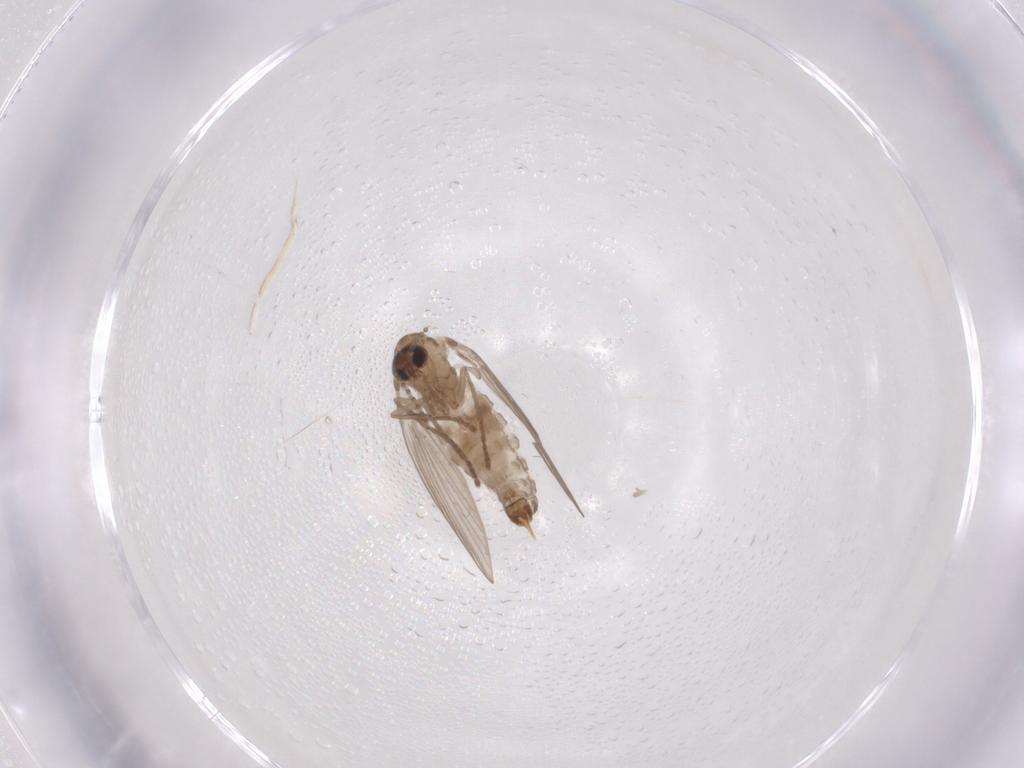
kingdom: Animalia
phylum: Arthropoda
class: Insecta
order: Diptera
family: Psychodidae
